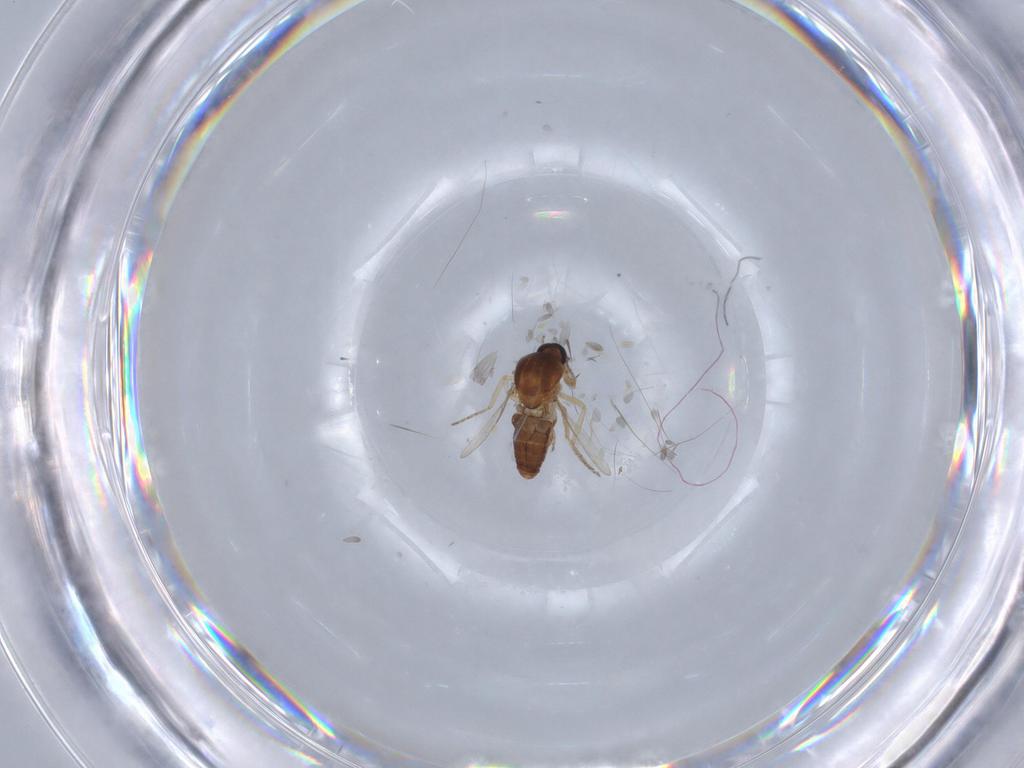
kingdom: Animalia
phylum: Arthropoda
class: Insecta
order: Diptera
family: Ceratopogonidae
